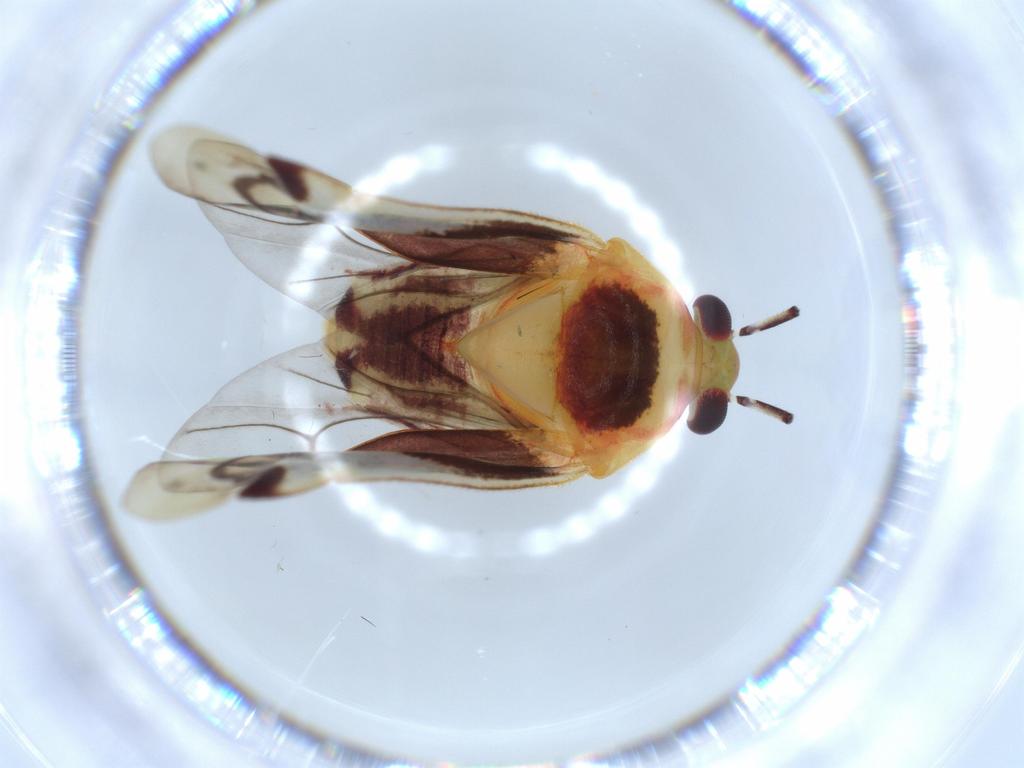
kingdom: Animalia
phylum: Arthropoda
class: Insecta
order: Hemiptera
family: Miridae
